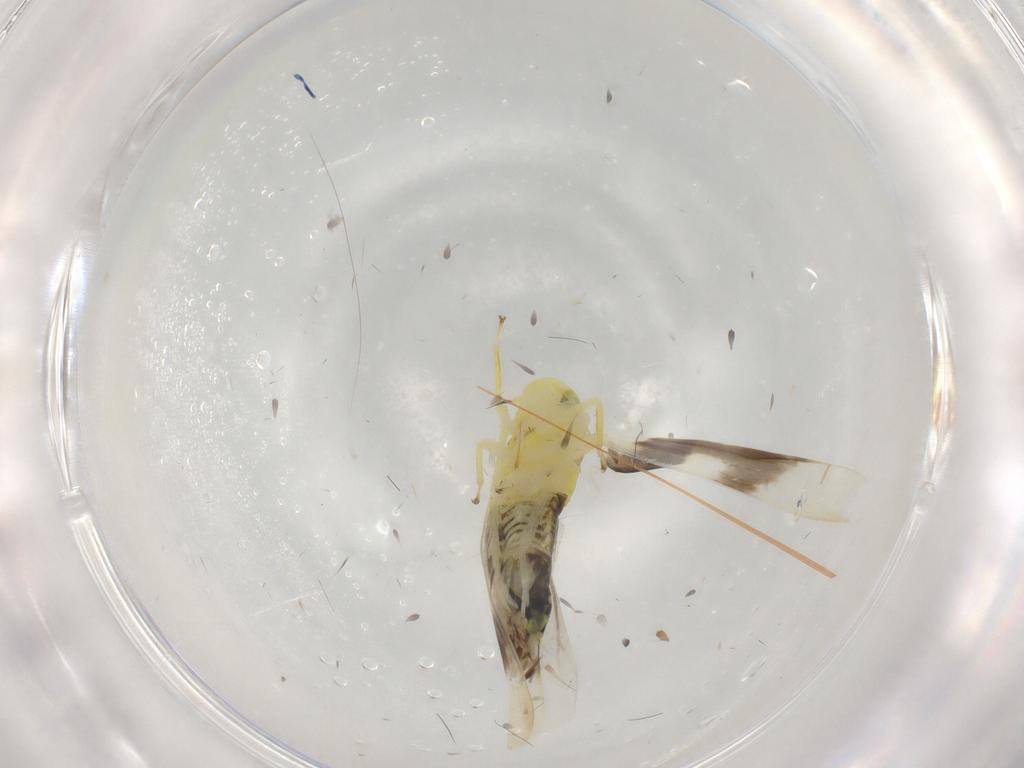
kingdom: Animalia
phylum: Arthropoda
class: Insecta
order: Hemiptera
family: Cicadellidae
